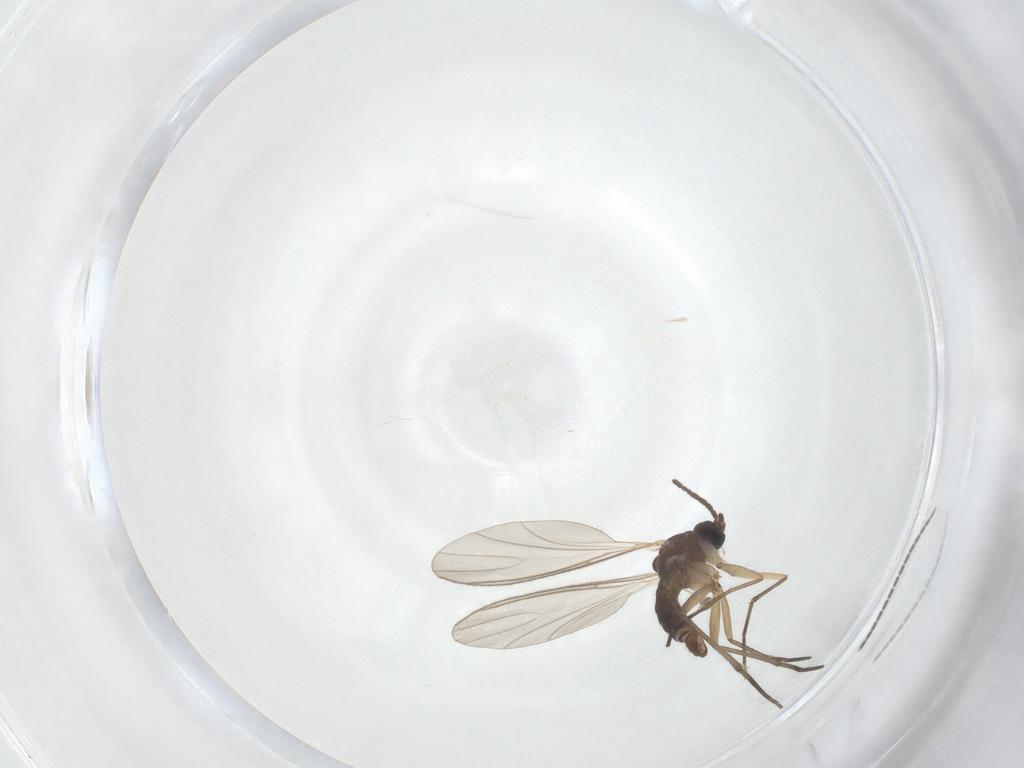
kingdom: Animalia
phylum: Arthropoda
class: Insecta
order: Diptera
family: Sciaridae
